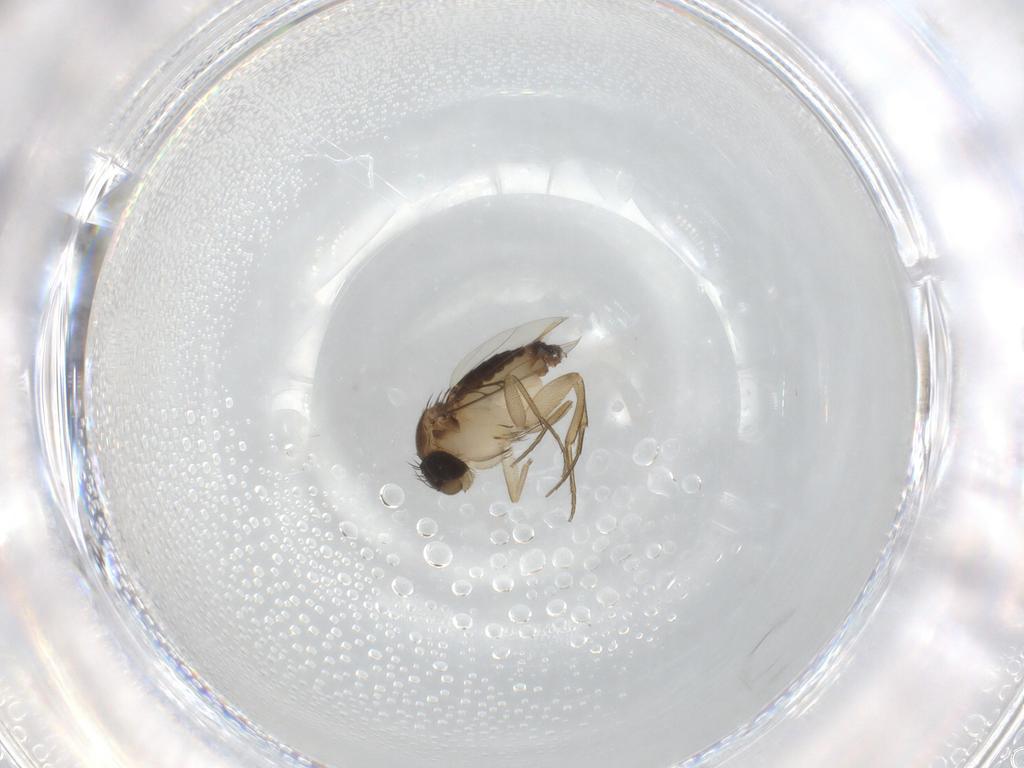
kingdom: Animalia
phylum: Arthropoda
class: Insecta
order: Diptera
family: Phoridae
